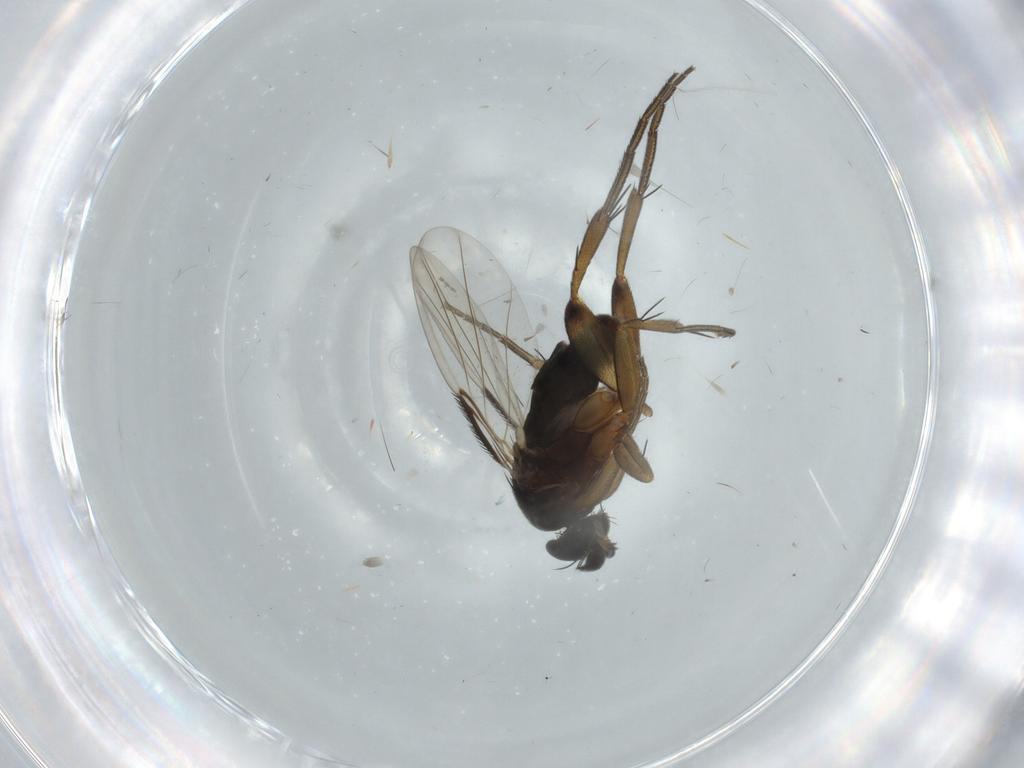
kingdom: Animalia
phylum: Arthropoda
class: Insecta
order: Diptera
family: Phoridae
